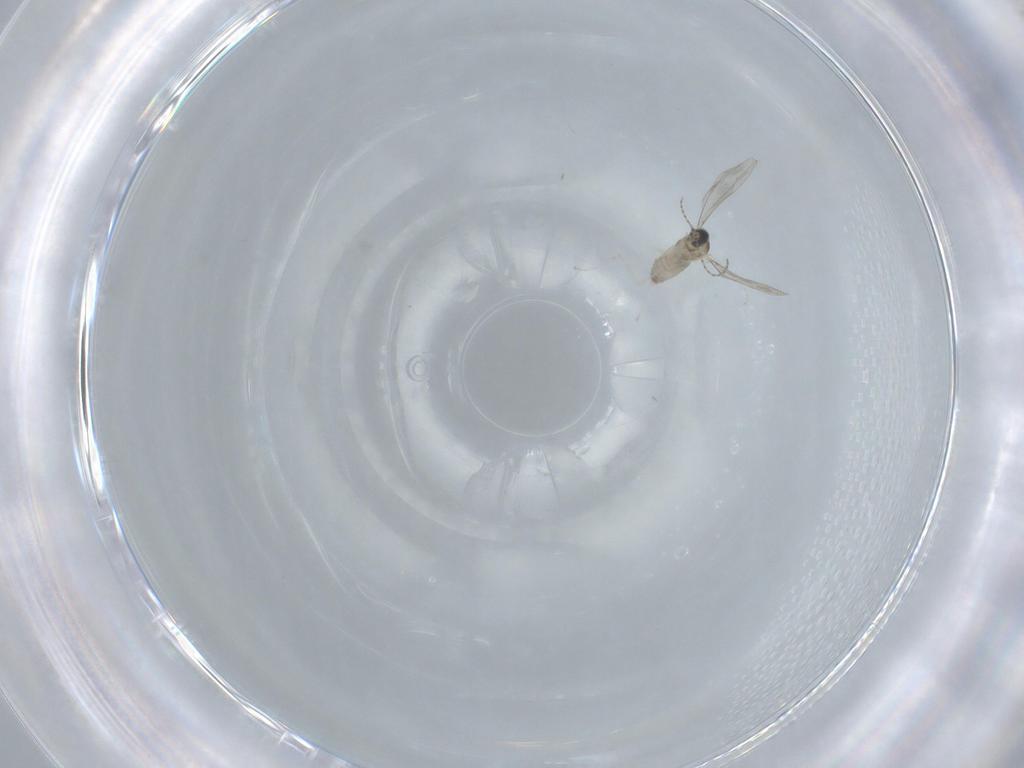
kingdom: Animalia
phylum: Arthropoda
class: Insecta
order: Diptera
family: Cecidomyiidae
